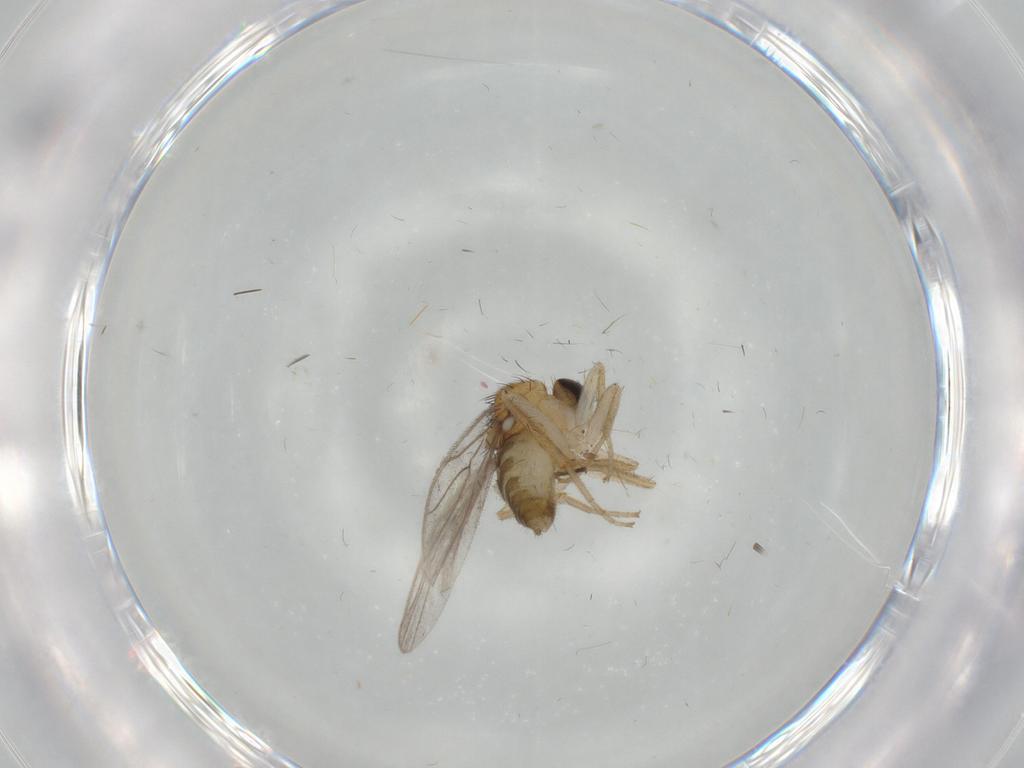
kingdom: Animalia
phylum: Arthropoda
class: Insecta
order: Diptera
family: Hybotidae
